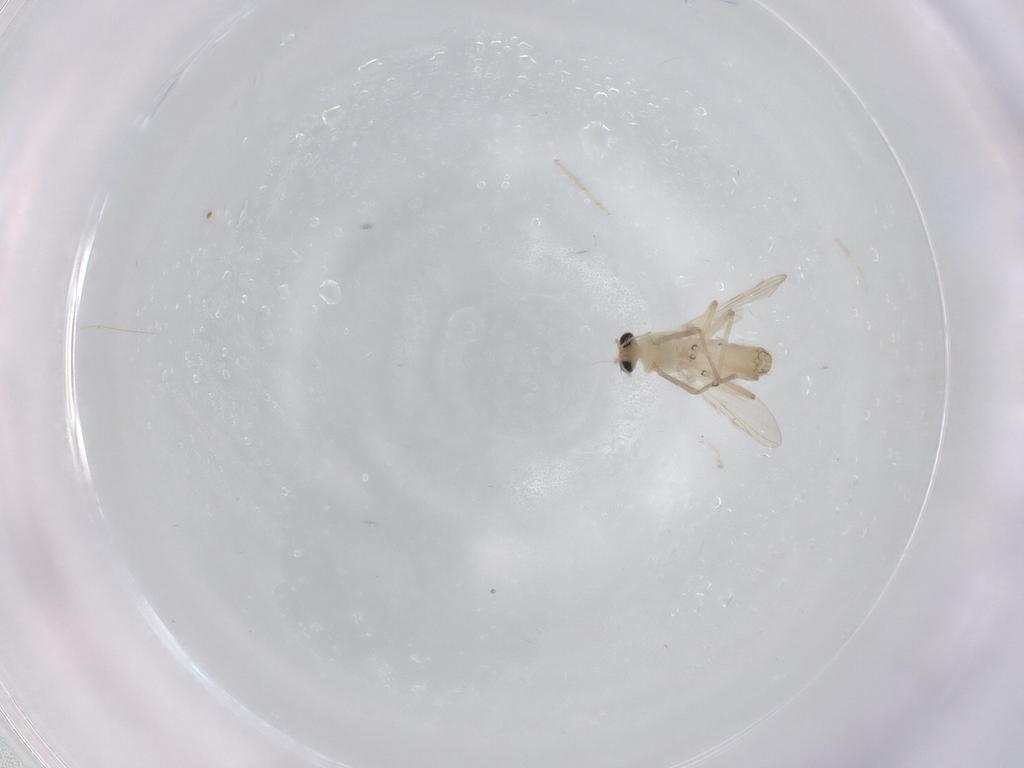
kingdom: Animalia
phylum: Arthropoda
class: Insecta
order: Diptera
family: Chironomidae
